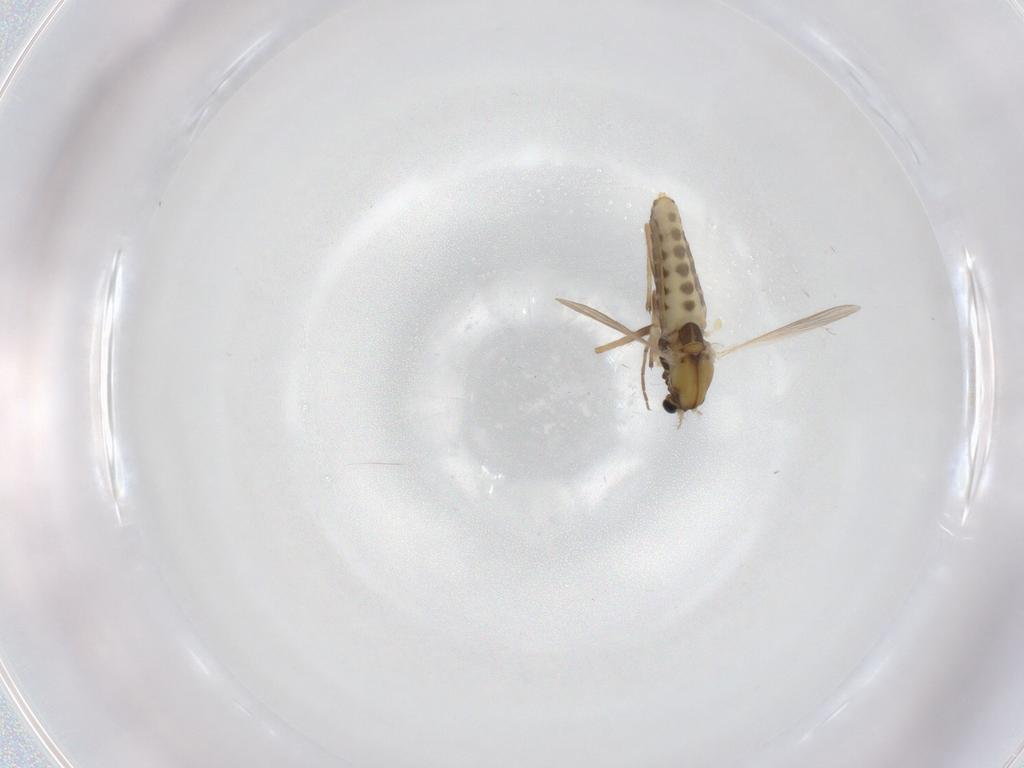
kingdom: Animalia
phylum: Arthropoda
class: Insecta
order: Diptera
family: Chironomidae
